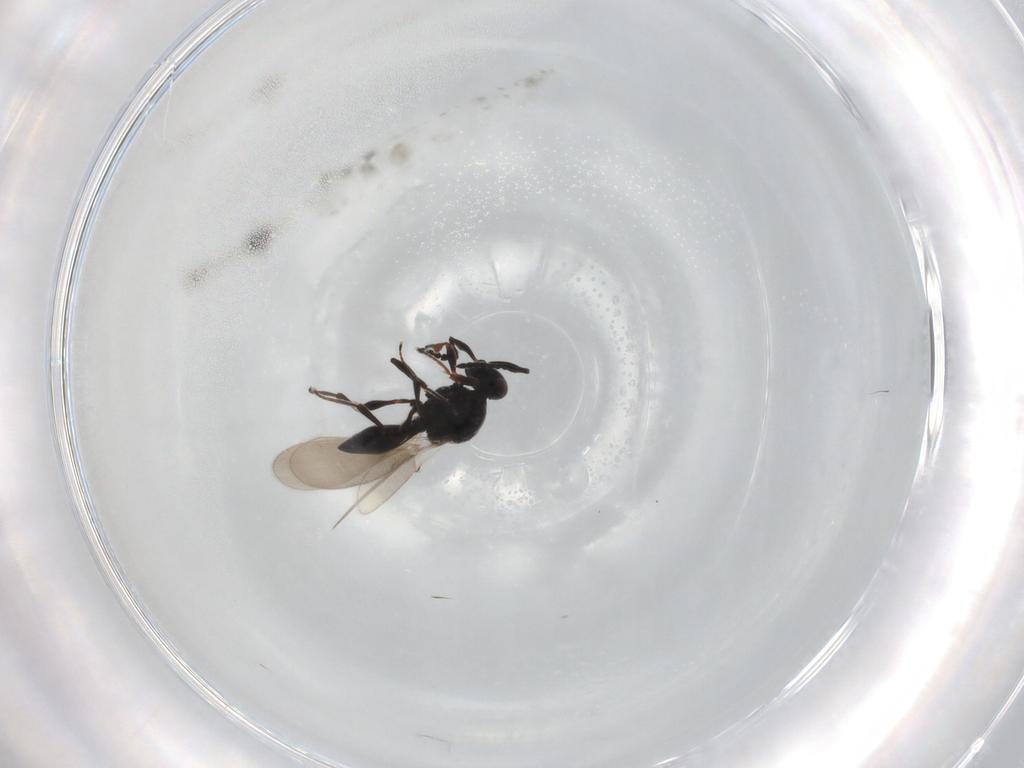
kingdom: Animalia
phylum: Arthropoda
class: Insecta
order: Hymenoptera
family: Platygastridae
